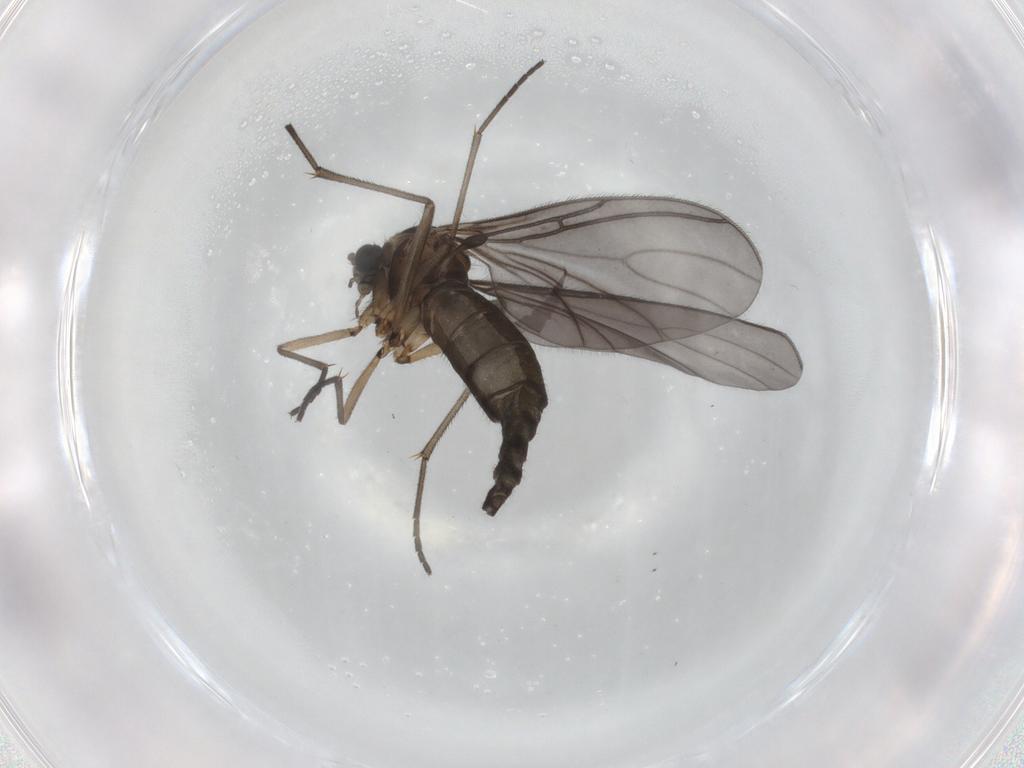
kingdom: Animalia
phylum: Arthropoda
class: Insecta
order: Diptera
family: Sciaridae
